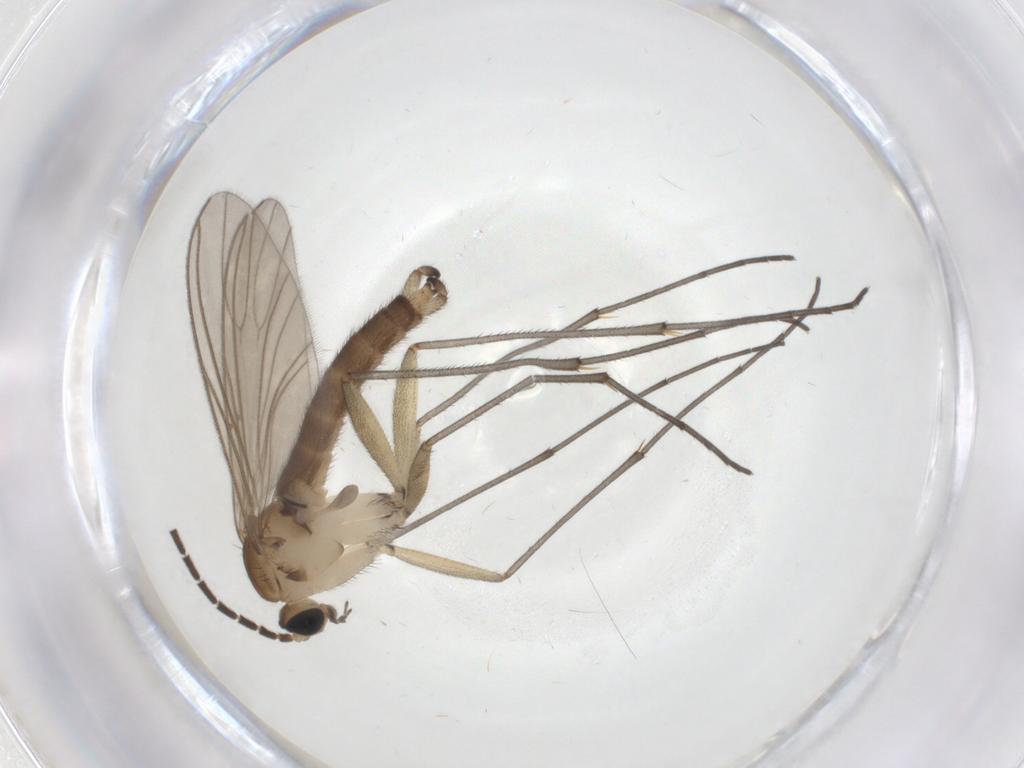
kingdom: Animalia
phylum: Arthropoda
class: Insecta
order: Diptera
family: Sciaridae
